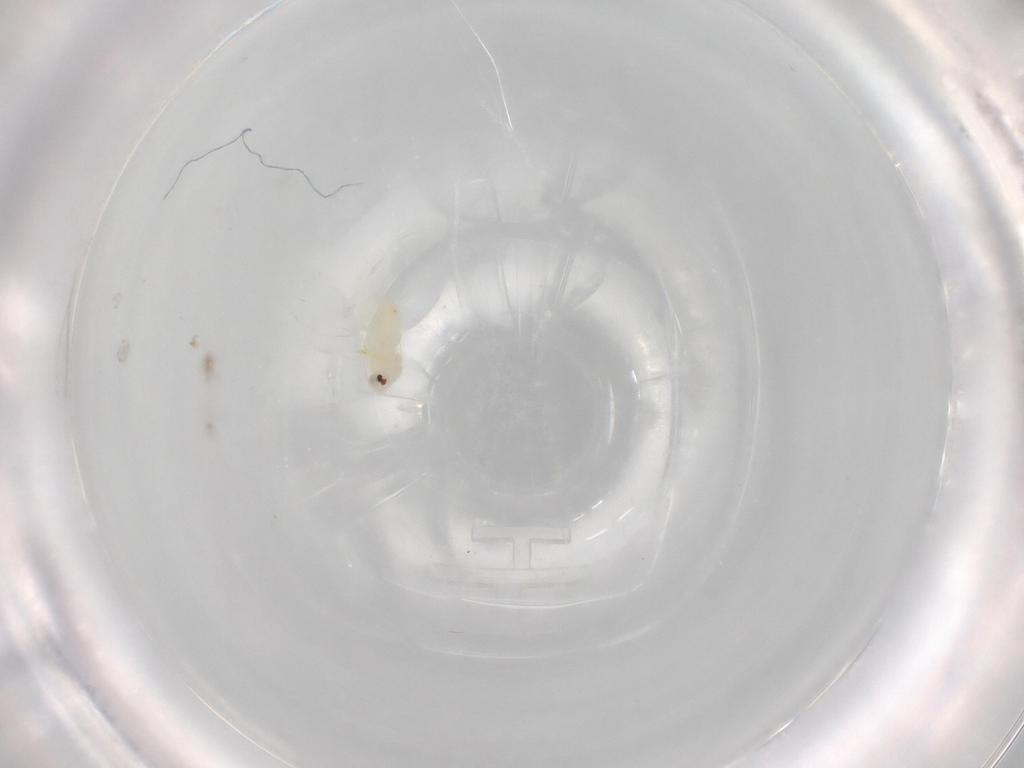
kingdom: Animalia
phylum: Arthropoda
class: Insecta
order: Hemiptera
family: Aleyrodidae
